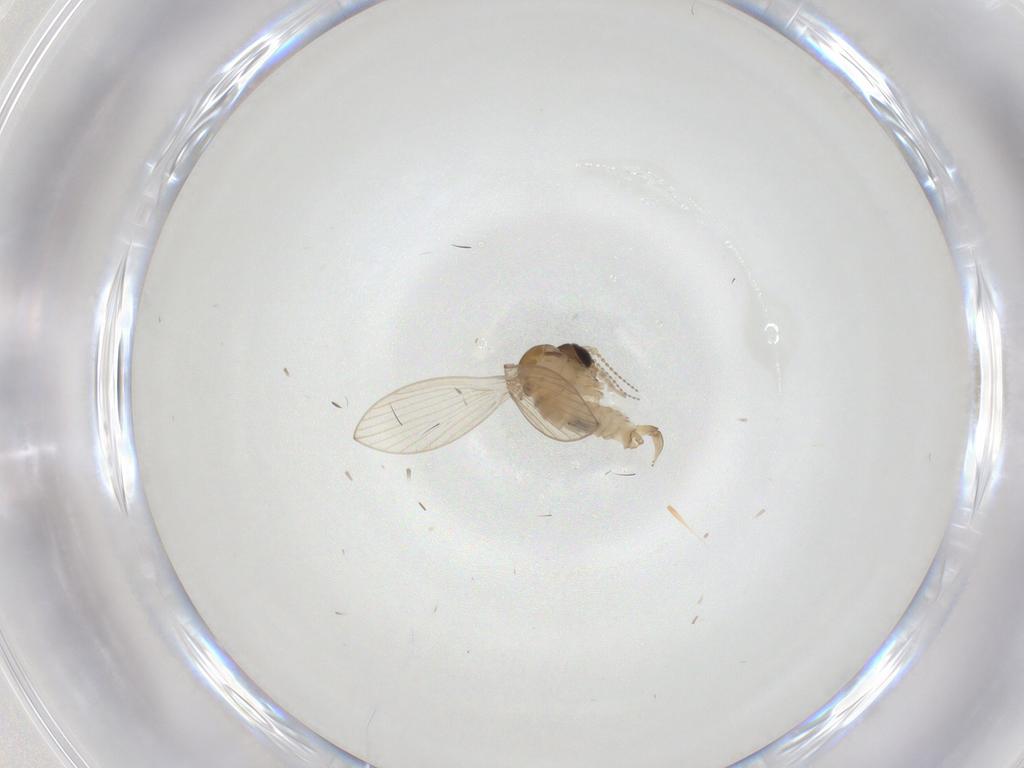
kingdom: Animalia
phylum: Arthropoda
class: Insecta
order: Diptera
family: Psychodidae
